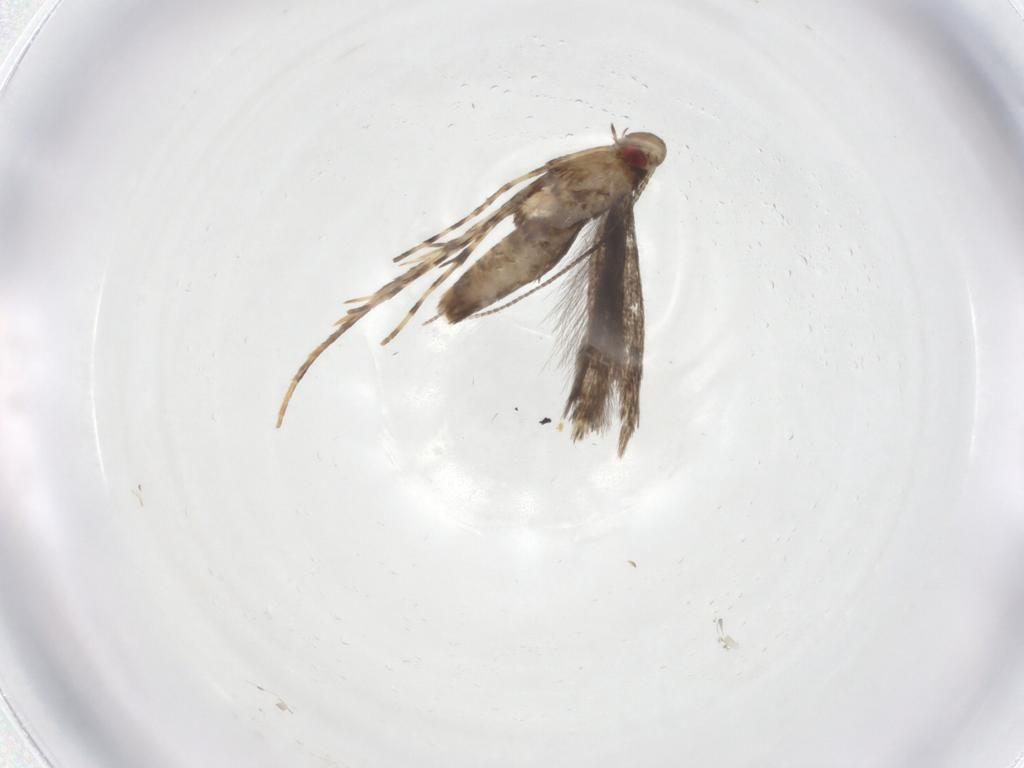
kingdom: Animalia
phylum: Arthropoda
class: Insecta
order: Lepidoptera
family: Gracillariidae
